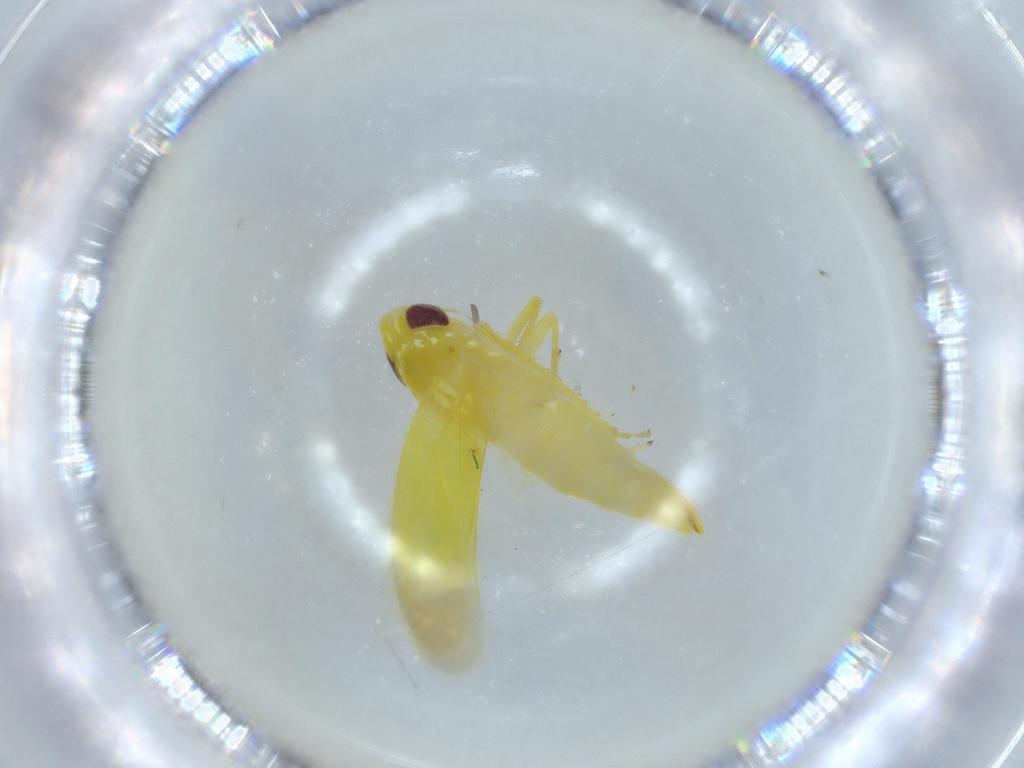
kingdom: Animalia
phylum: Arthropoda
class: Insecta
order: Hemiptera
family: Cicadellidae
